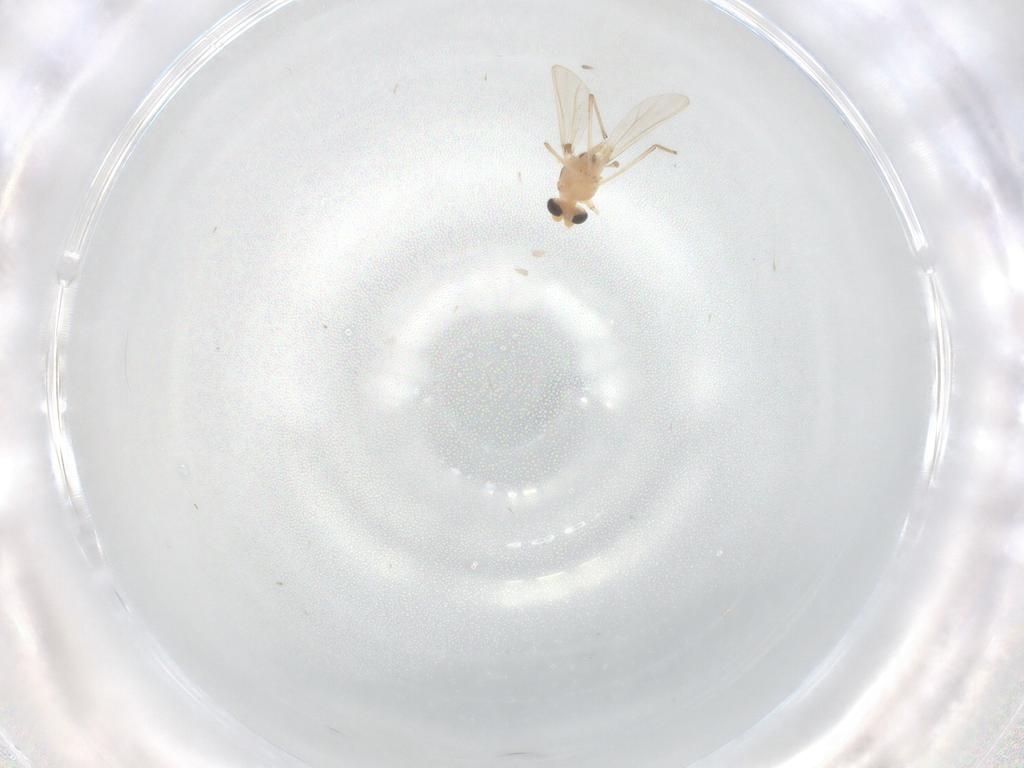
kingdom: Animalia
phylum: Arthropoda
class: Insecta
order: Diptera
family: Chironomidae
